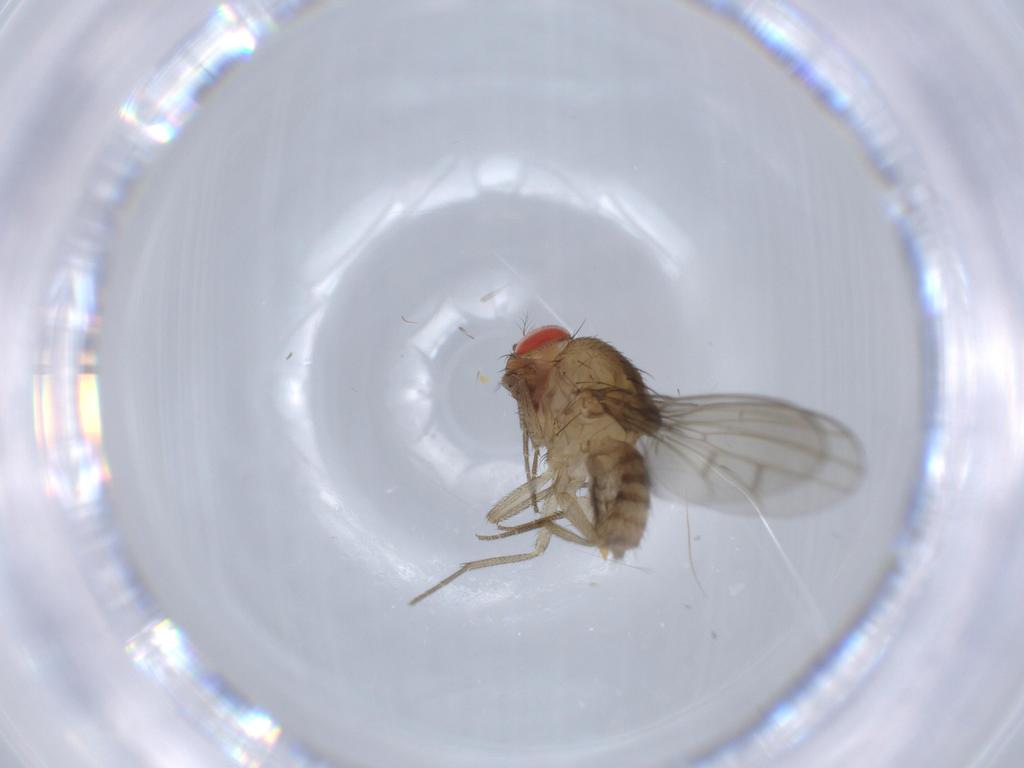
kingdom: Animalia
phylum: Arthropoda
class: Insecta
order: Diptera
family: Drosophilidae
